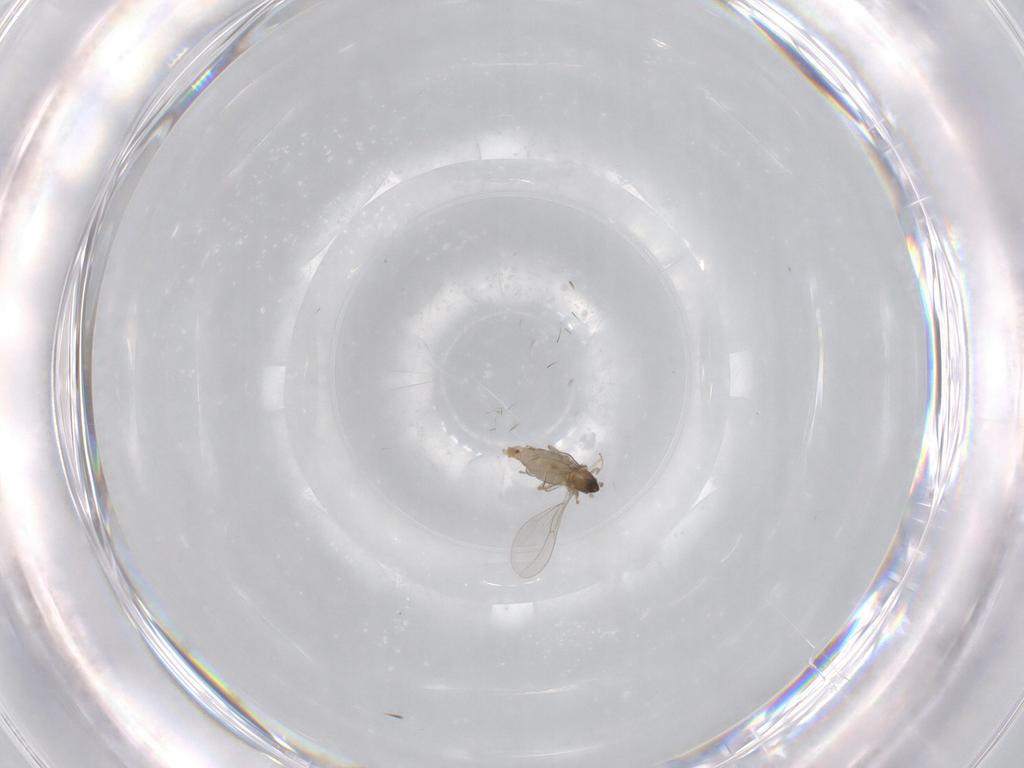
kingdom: Animalia
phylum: Arthropoda
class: Insecta
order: Diptera
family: Cecidomyiidae
